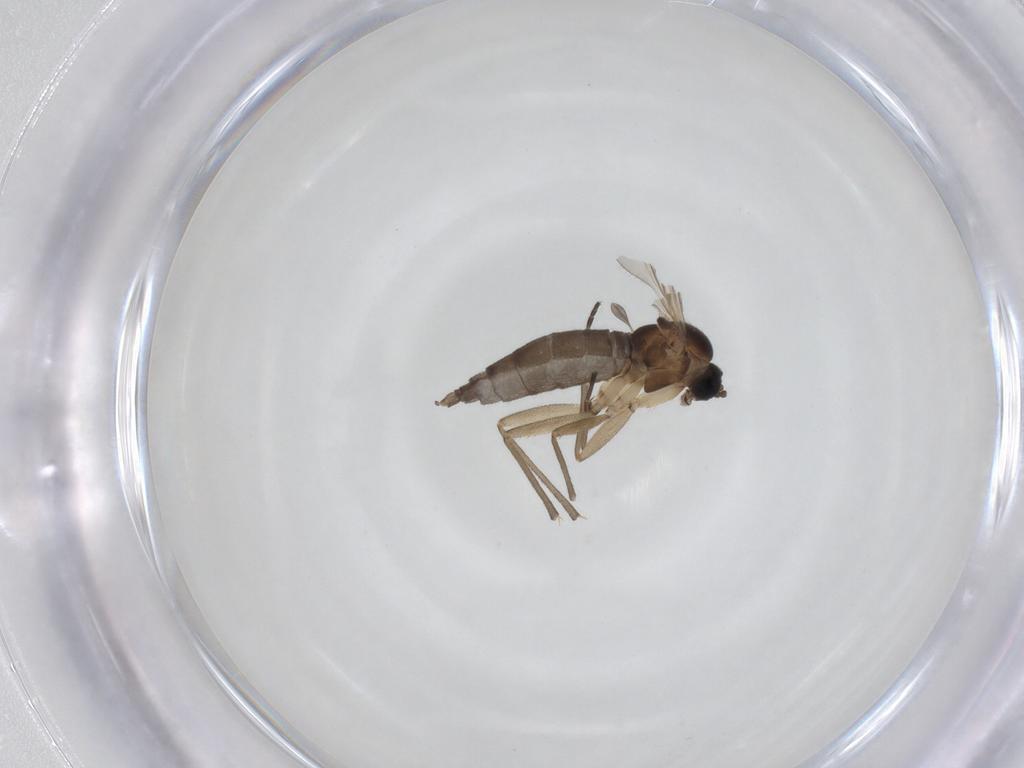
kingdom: Animalia
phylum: Arthropoda
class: Insecta
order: Diptera
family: Sciaridae
